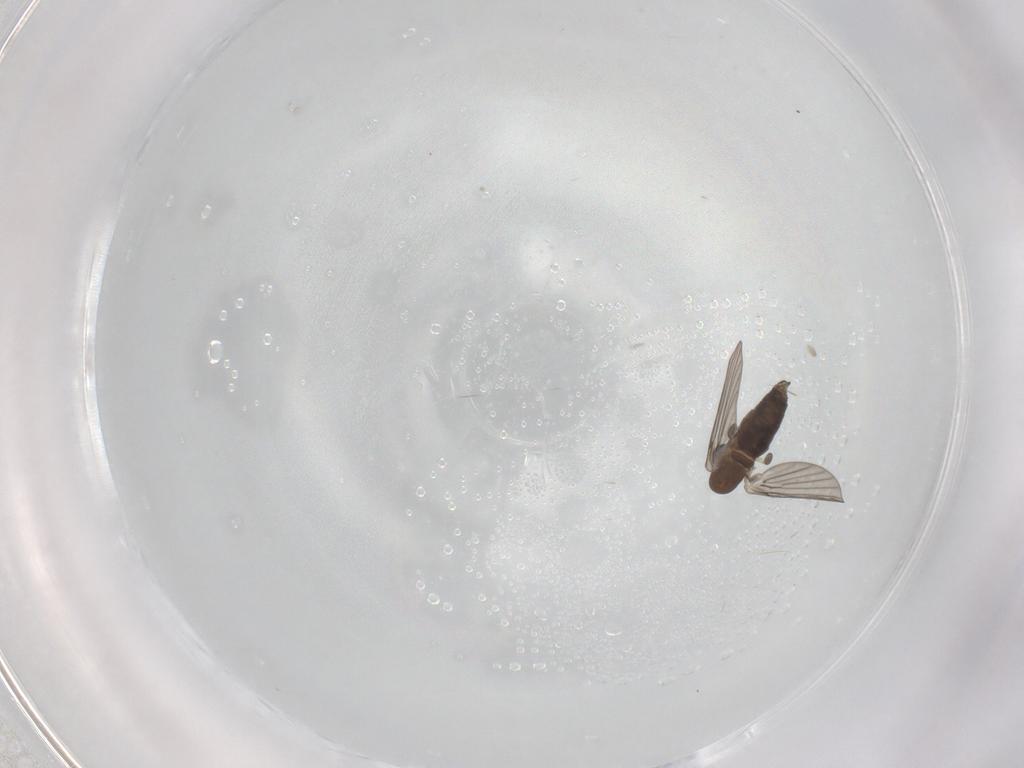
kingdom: Animalia
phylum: Arthropoda
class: Insecta
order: Diptera
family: Psychodidae
